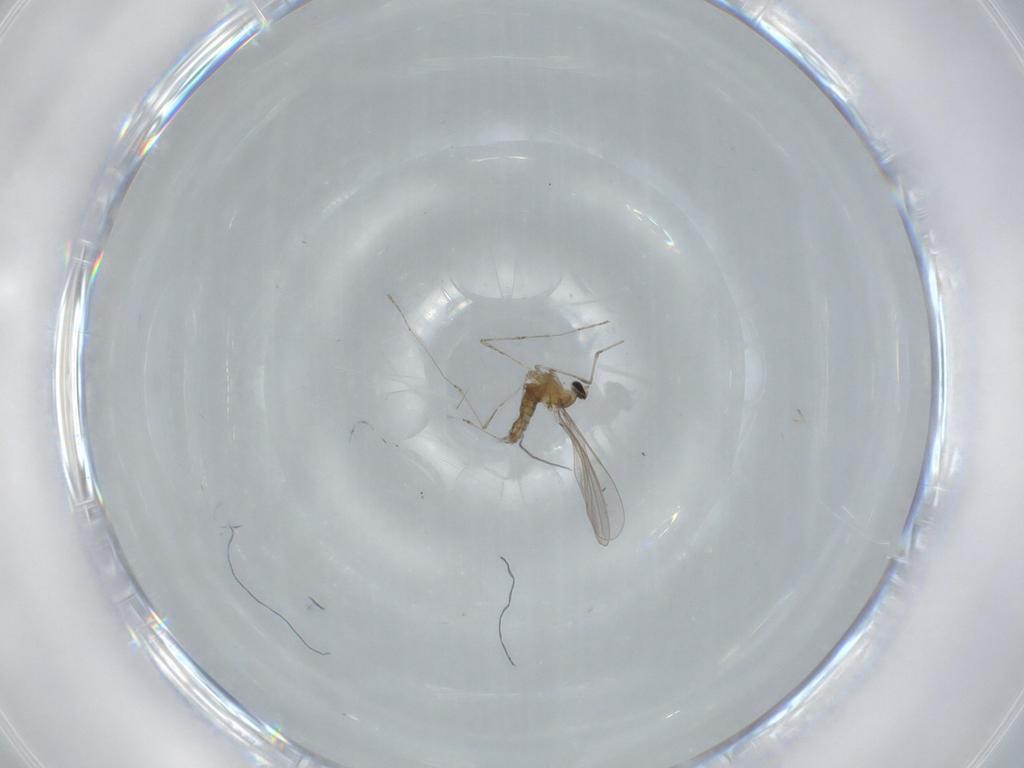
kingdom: Animalia
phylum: Arthropoda
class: Insecta
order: Diptera
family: Cecidomyiidae
